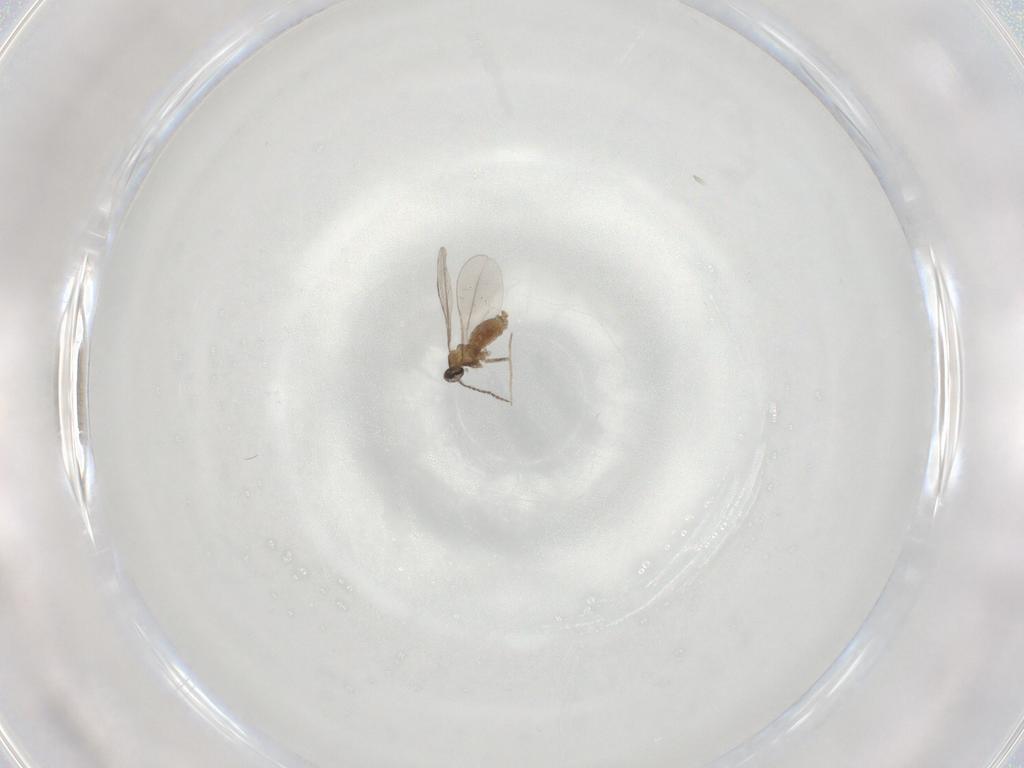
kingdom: Animalia
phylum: Arthropoda
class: Insecta
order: Diptera
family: Cecidomyiidae
